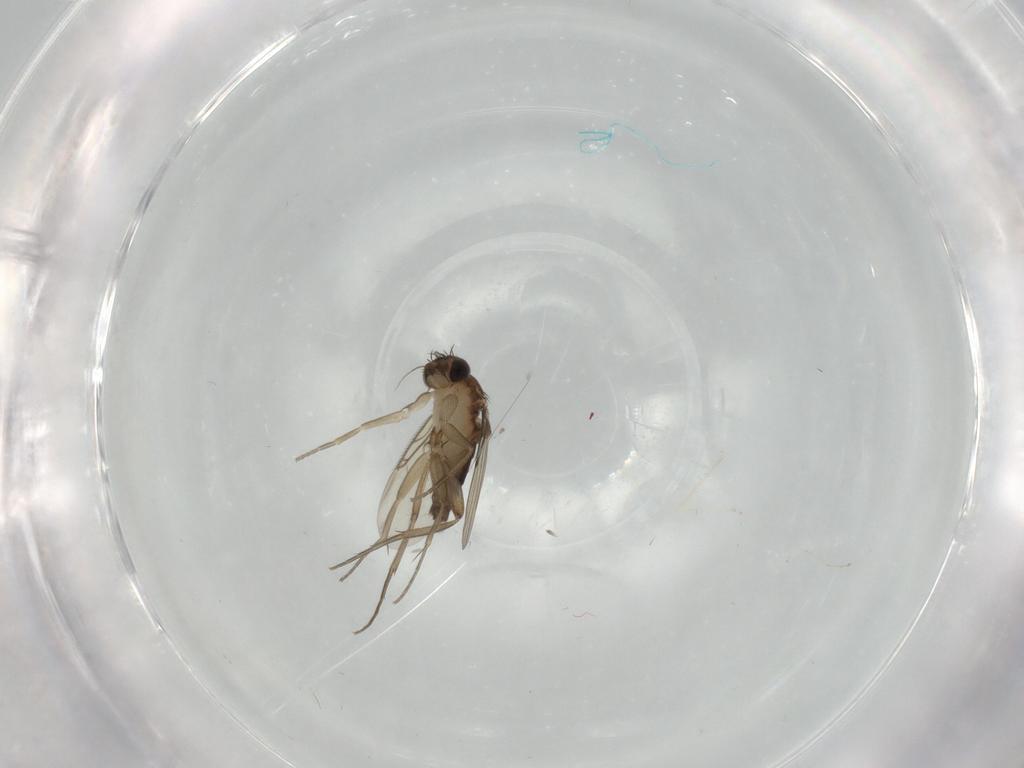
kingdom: Animalia
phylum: Arthropoda
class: Insecta
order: Diptera
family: Phoridae
